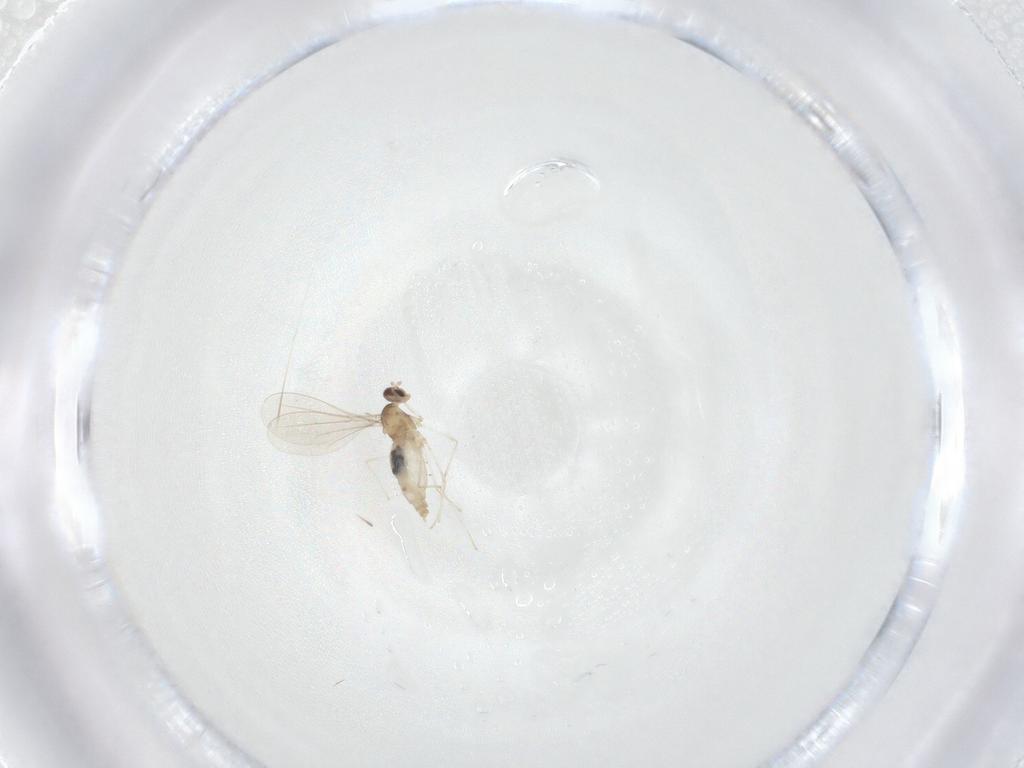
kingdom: Animalia
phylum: Arthropoda
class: Insecta
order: Diptera
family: Cecidomyiidae
